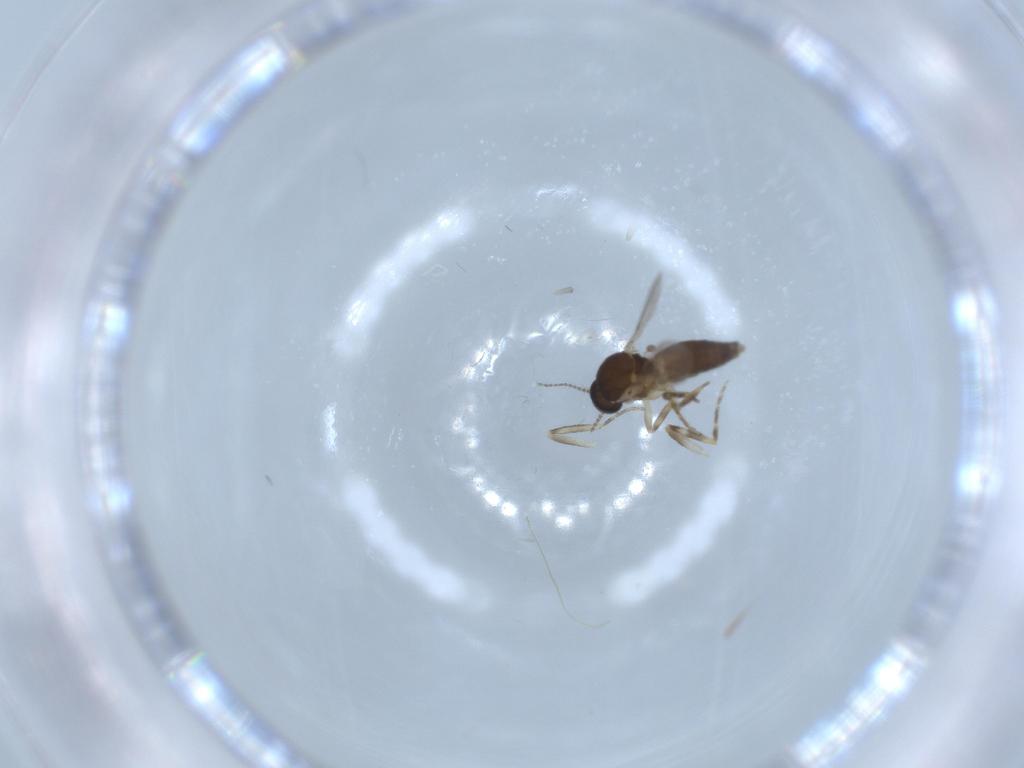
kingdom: Animalia
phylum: Arthropoda
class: Insecta
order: Diptera
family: Ceratopogonidae
